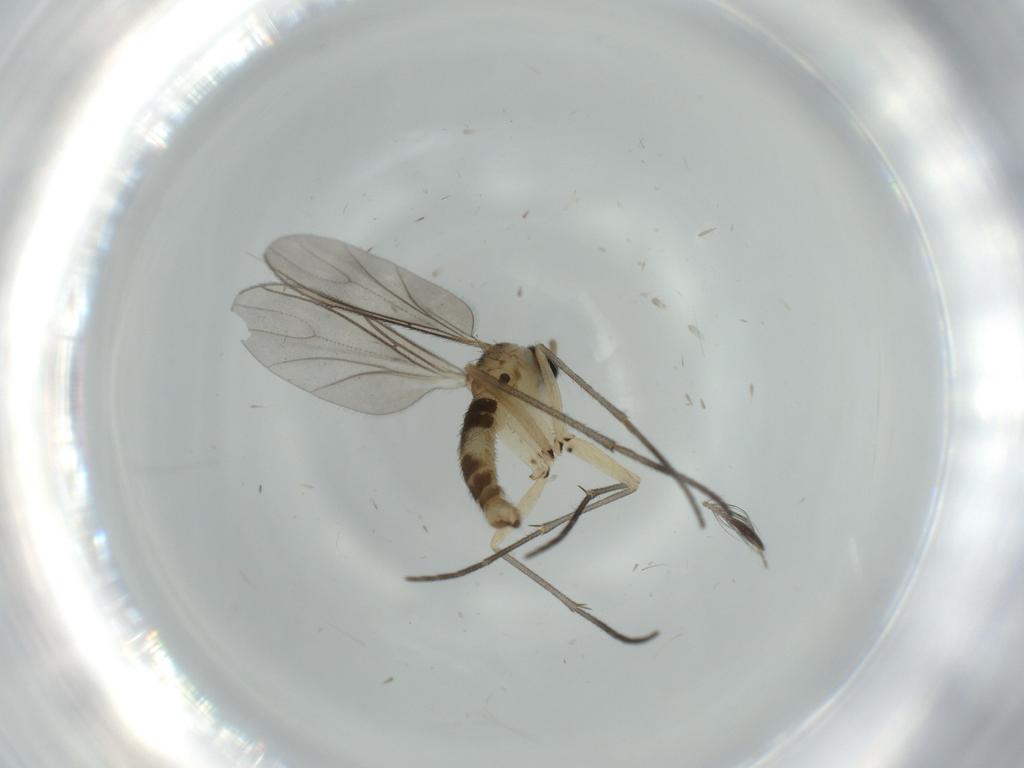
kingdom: Animalia
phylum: Arthropoda
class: Insecta
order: Diptera
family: Sciaridae
